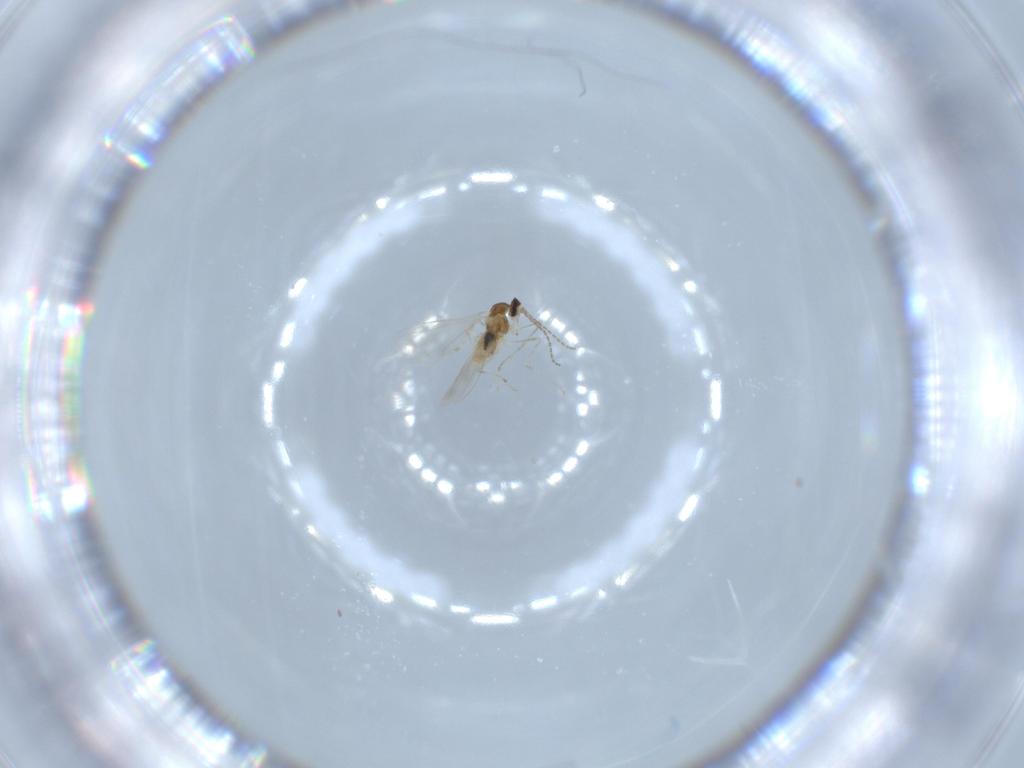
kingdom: Animalia
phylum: Arthropoda
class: Insecta
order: Diptera
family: Cecidomyiidae
